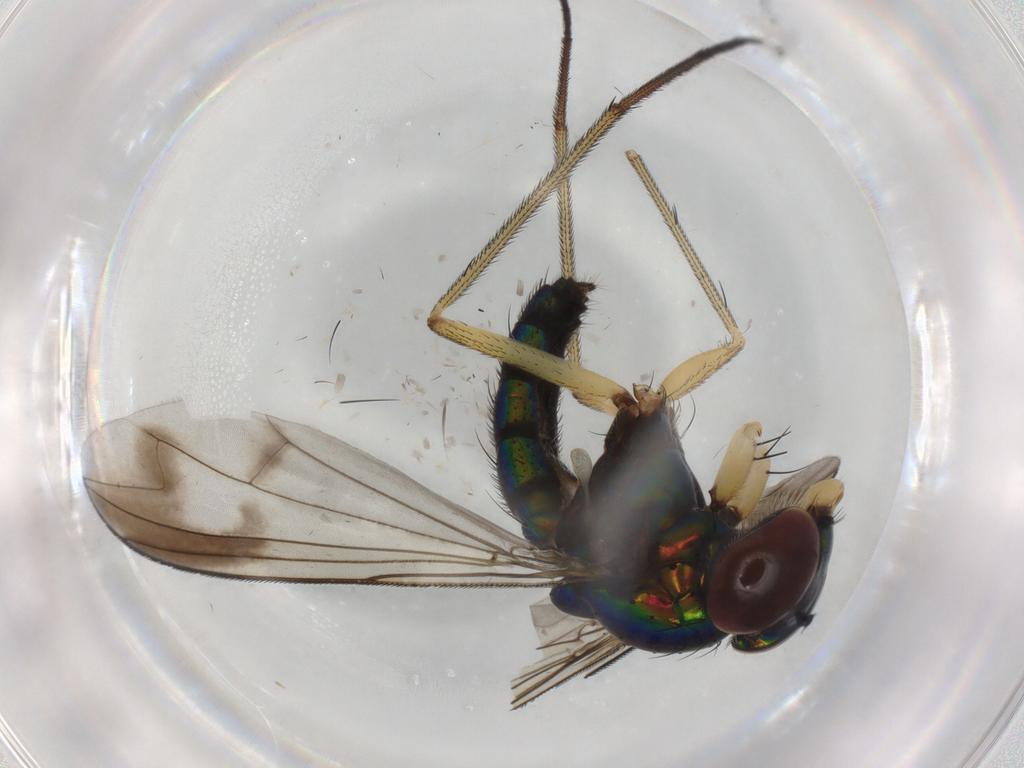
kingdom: Animalia
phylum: Arthropoda
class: Insecta
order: Diptera
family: Dolichopodidae
